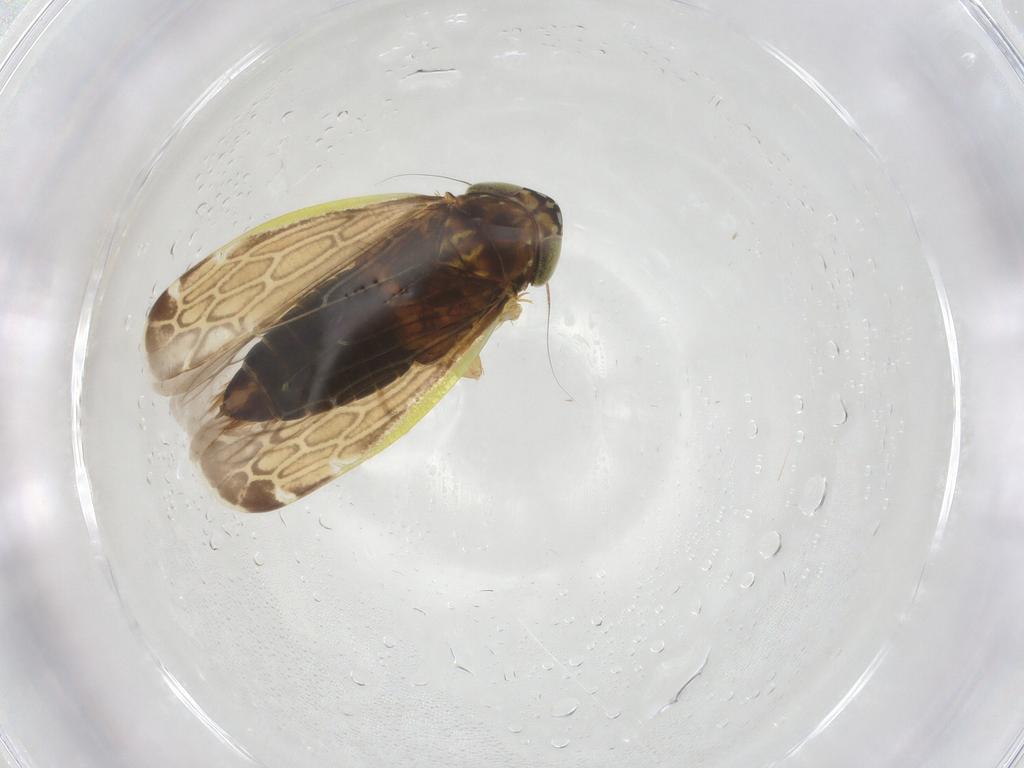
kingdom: Animalia
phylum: Arthropoda
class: Insecta
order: Hemiptera
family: Cicadellidae
